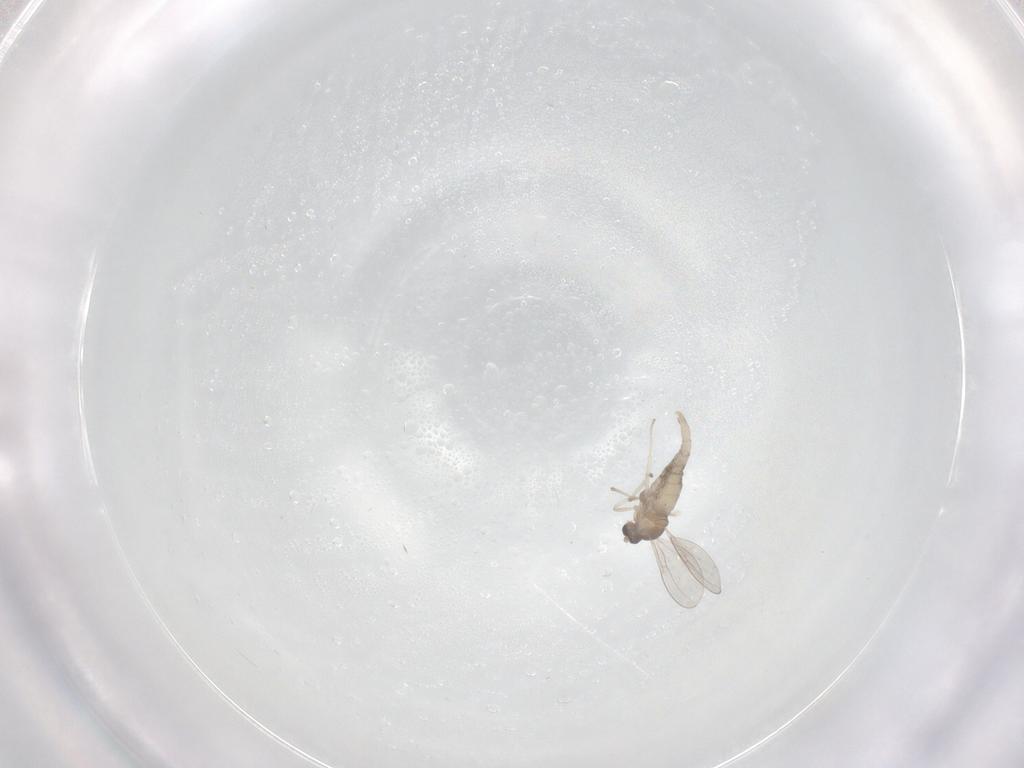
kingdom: Animalia
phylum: Arthropoda
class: Insecta
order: Diptera
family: Cecidomyiidae
